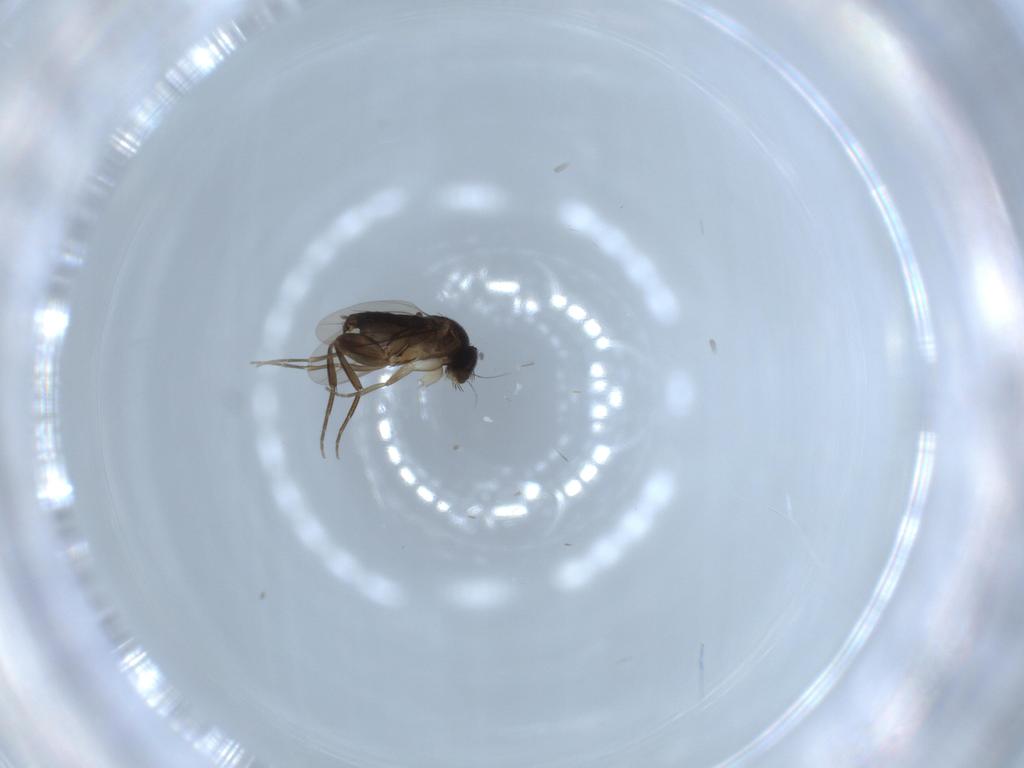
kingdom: Animalia
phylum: Arthropoda
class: Insecta
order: Diptera
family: Phoridae
